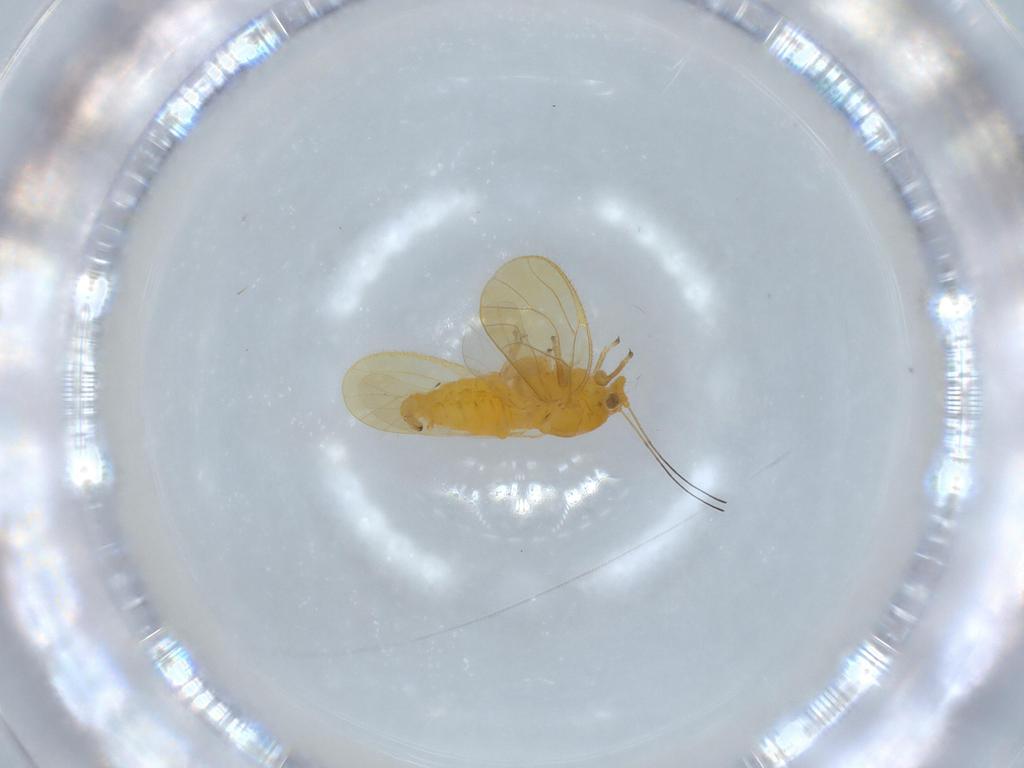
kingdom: Animalia
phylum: Arthropoda
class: Insecta
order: Hemiptera
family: Psyllidae
